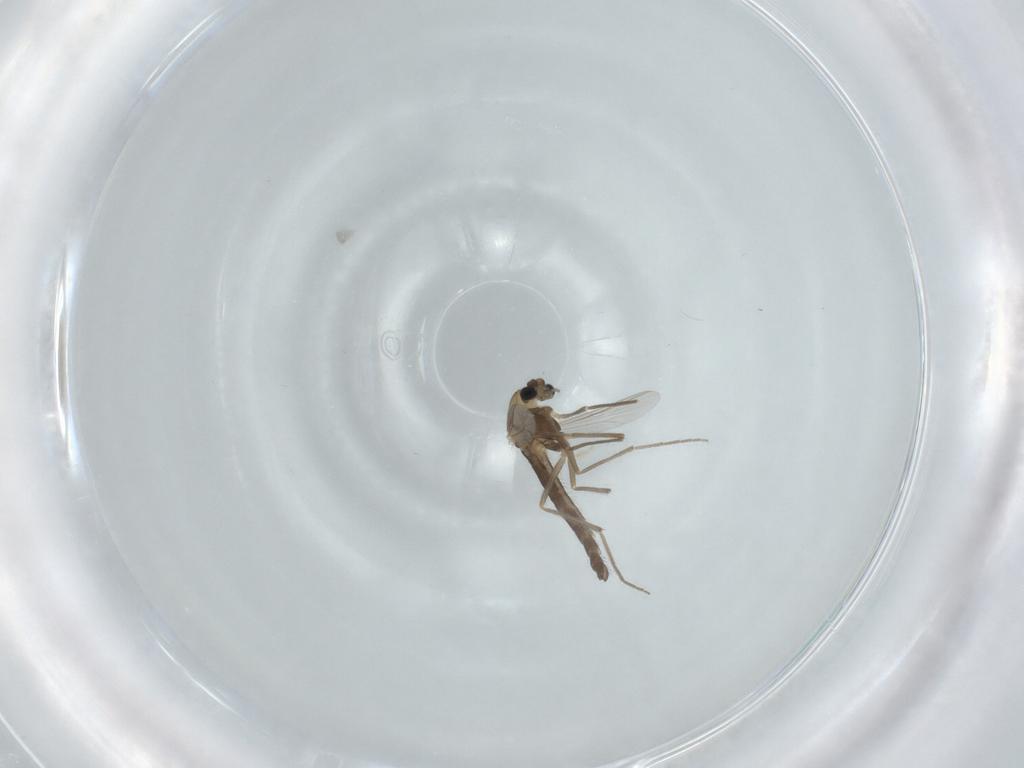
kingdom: Animalia
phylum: Arthropoda
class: Insecta
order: Diptera
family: Chironomidae
